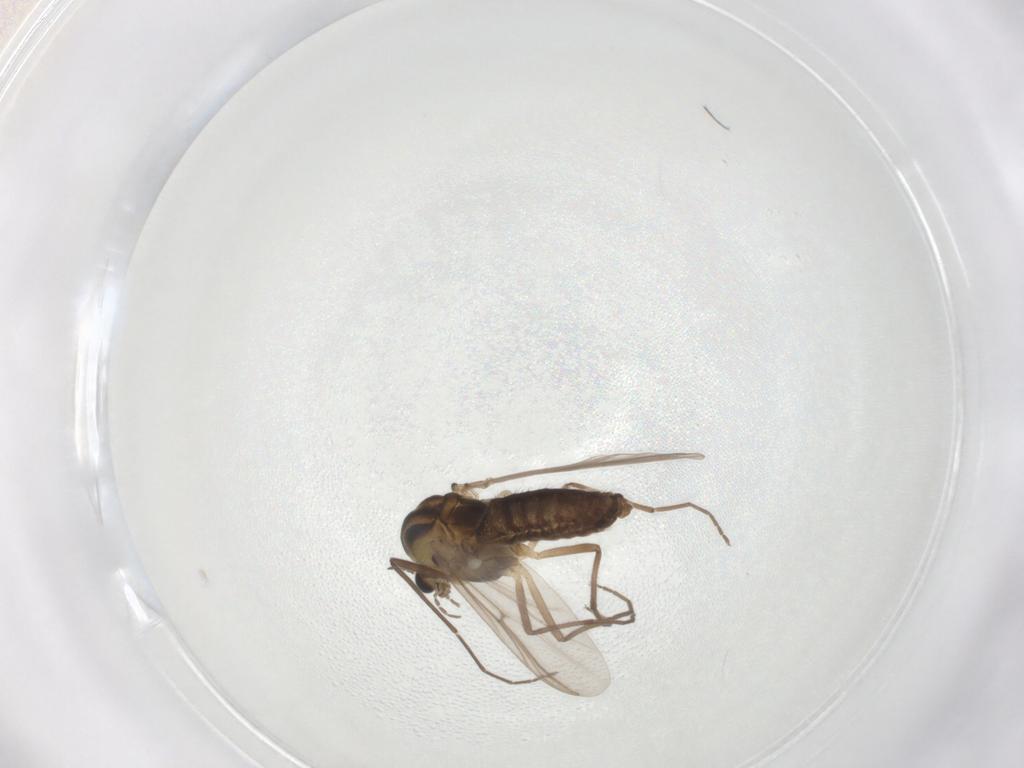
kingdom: Animalia
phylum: Arthropoda
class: Insecta
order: Diptera
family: Chironomidae
